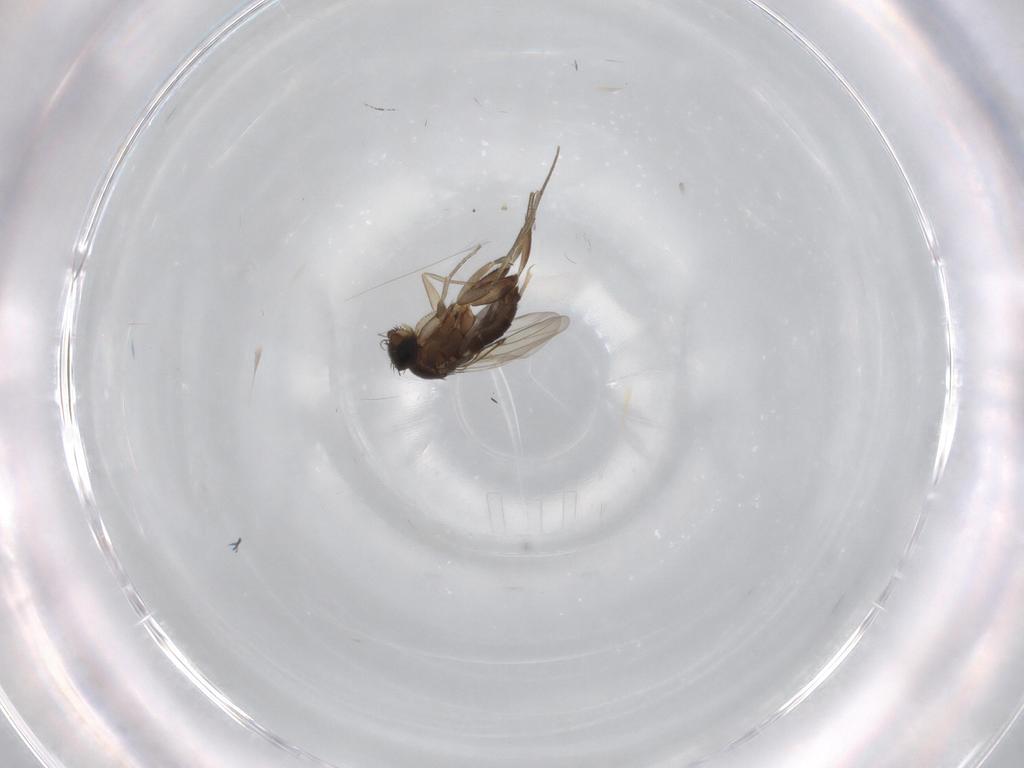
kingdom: Animalia
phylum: Arthropoda
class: Insecta
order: Diptera
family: Phoridae
